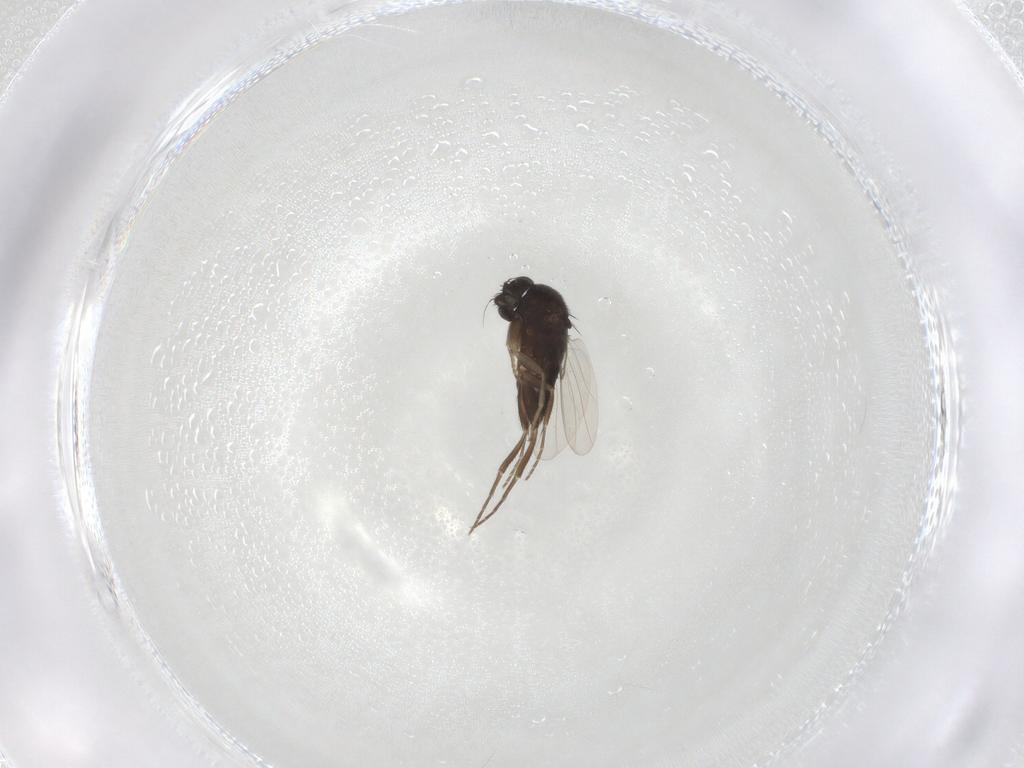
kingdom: Animalia
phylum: Arthropoda
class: Insecta
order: Diptera
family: Phoridae
